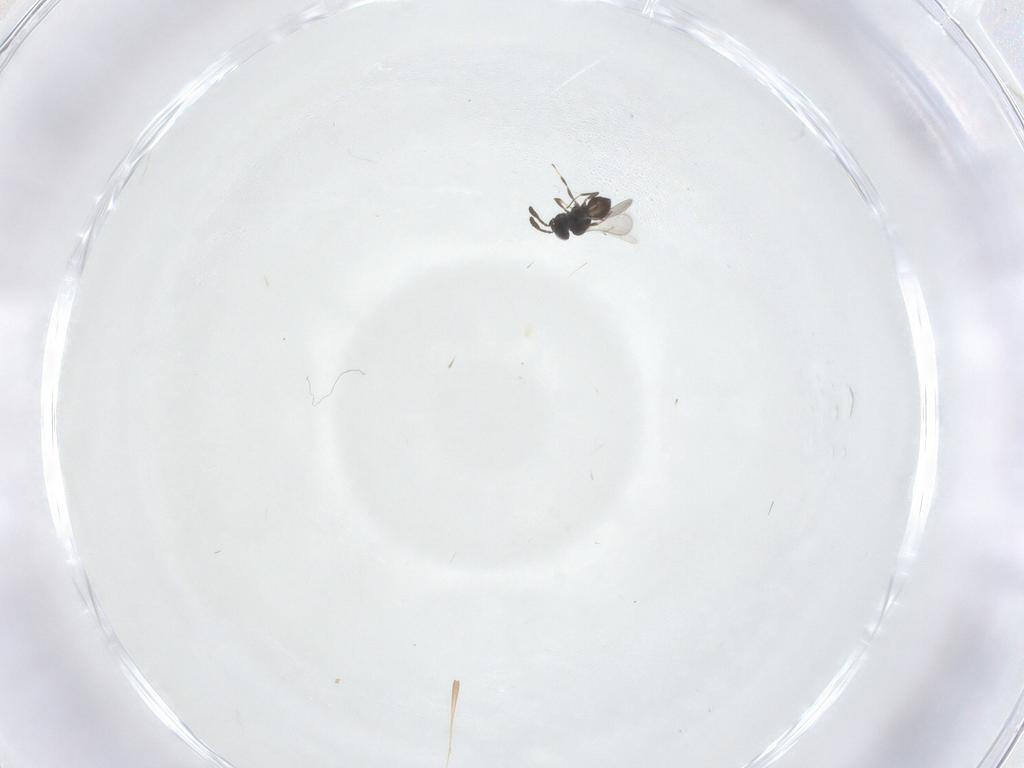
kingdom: Animalia
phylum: Arthropoda
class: Insecta
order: Hymenoptera
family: Scelionidae
